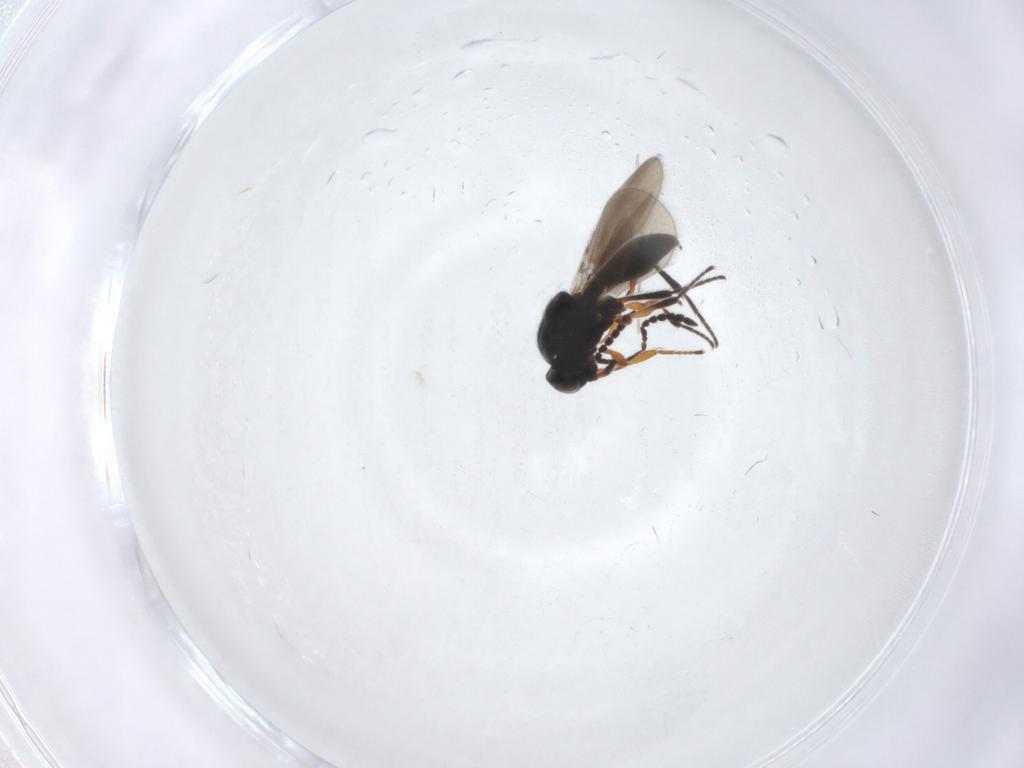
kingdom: Animalia
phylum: Arthropoda
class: Insecta
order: Hymenoptera
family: Platygastridae
